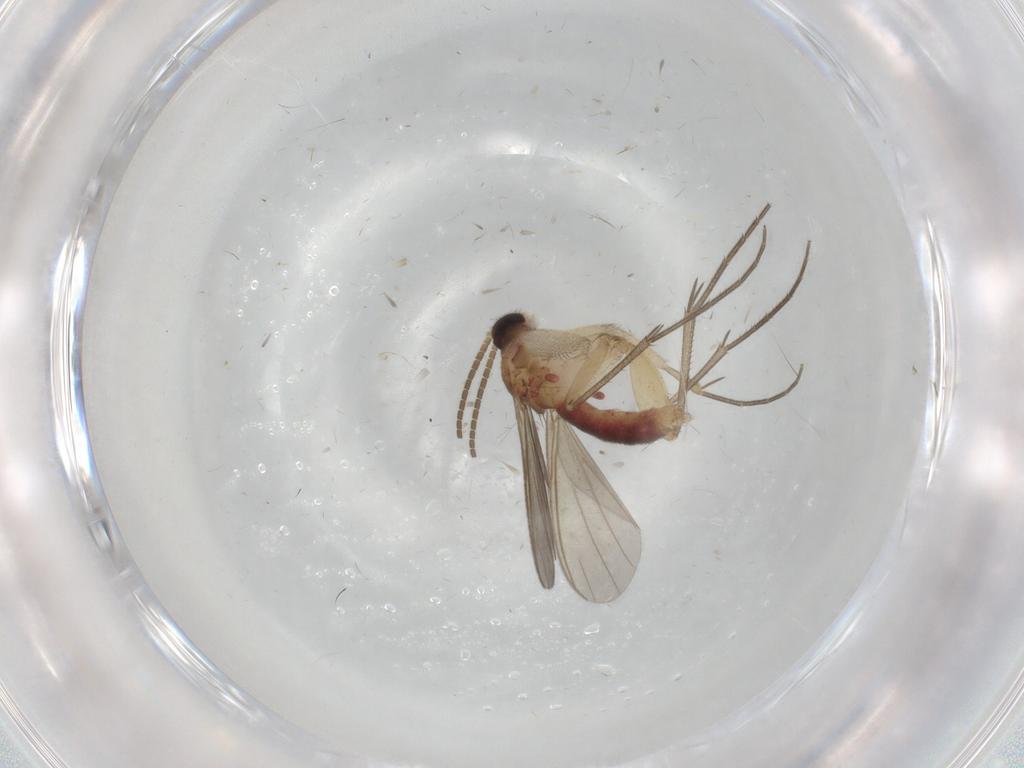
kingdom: Animalia
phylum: Arthropoda
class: Insecta
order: Diptera
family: Mycetophilidae
